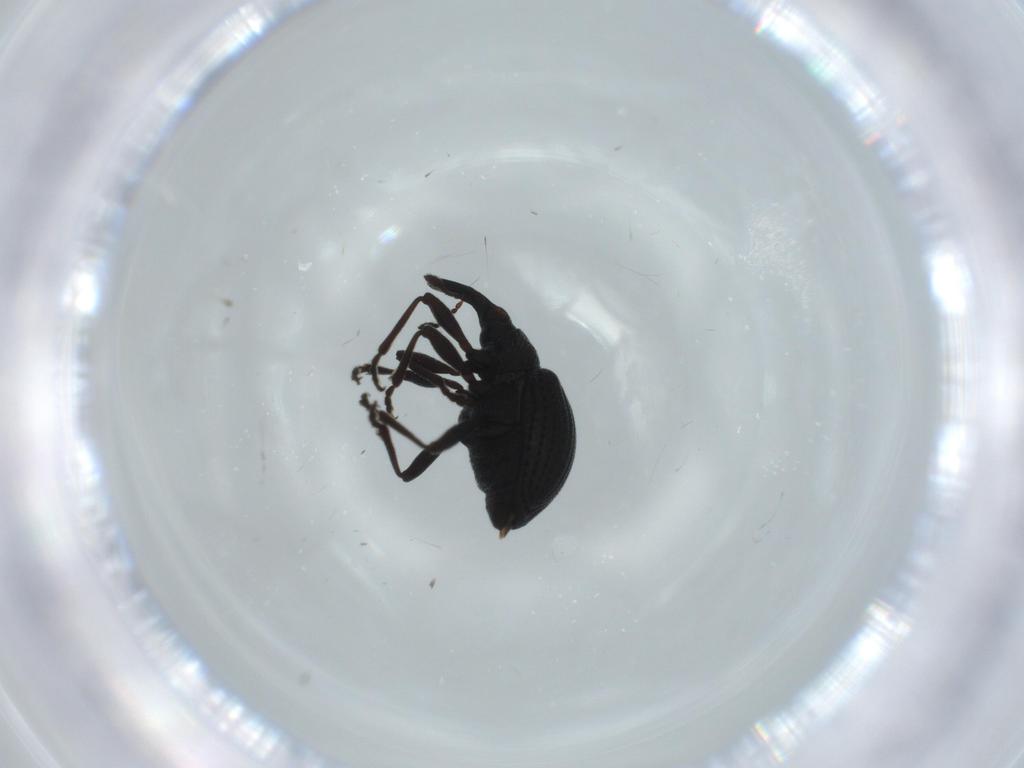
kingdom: Animalia
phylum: Arthropoda
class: Insecta
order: Coleoptera
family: Brentidae
